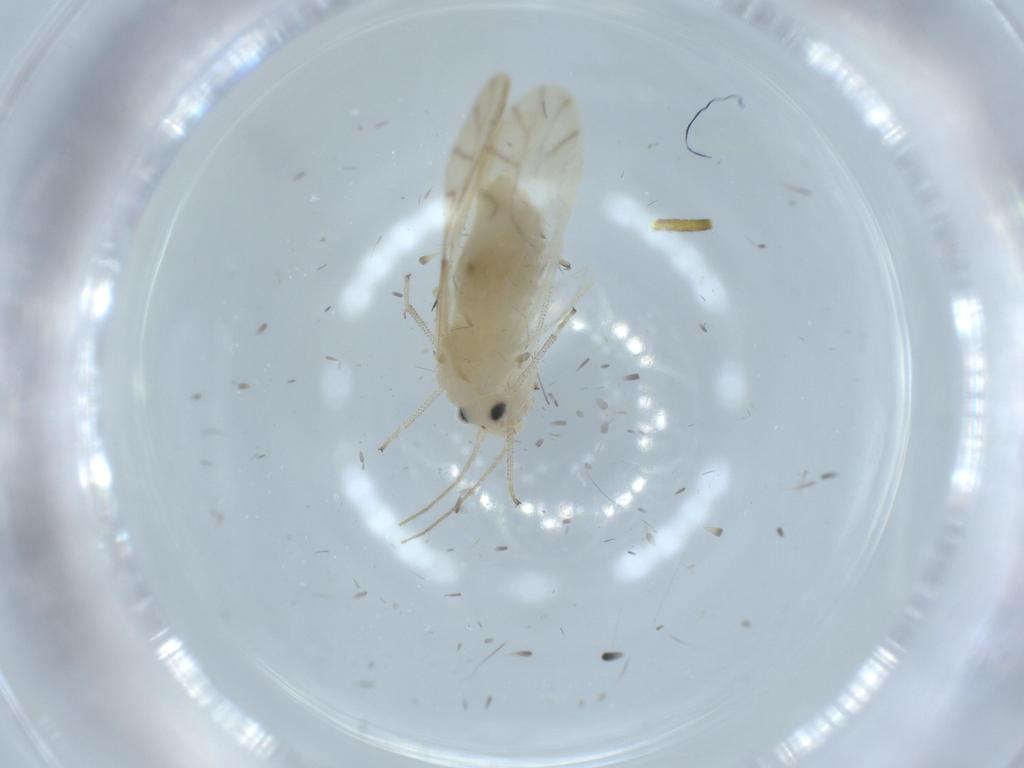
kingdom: Animalia
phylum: Arthropoda
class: Insecta
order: Psocodea
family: Caeciliusidae
